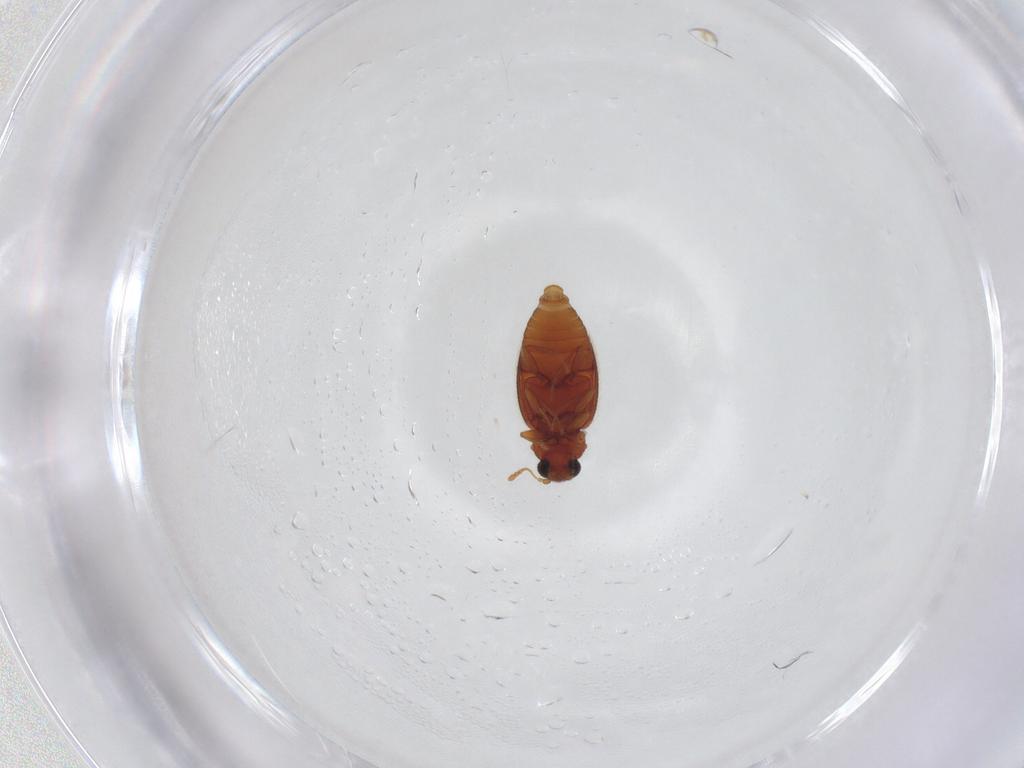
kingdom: Animalia
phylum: Arthropoda
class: Insecta
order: Coleoptera
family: Latridiidae
